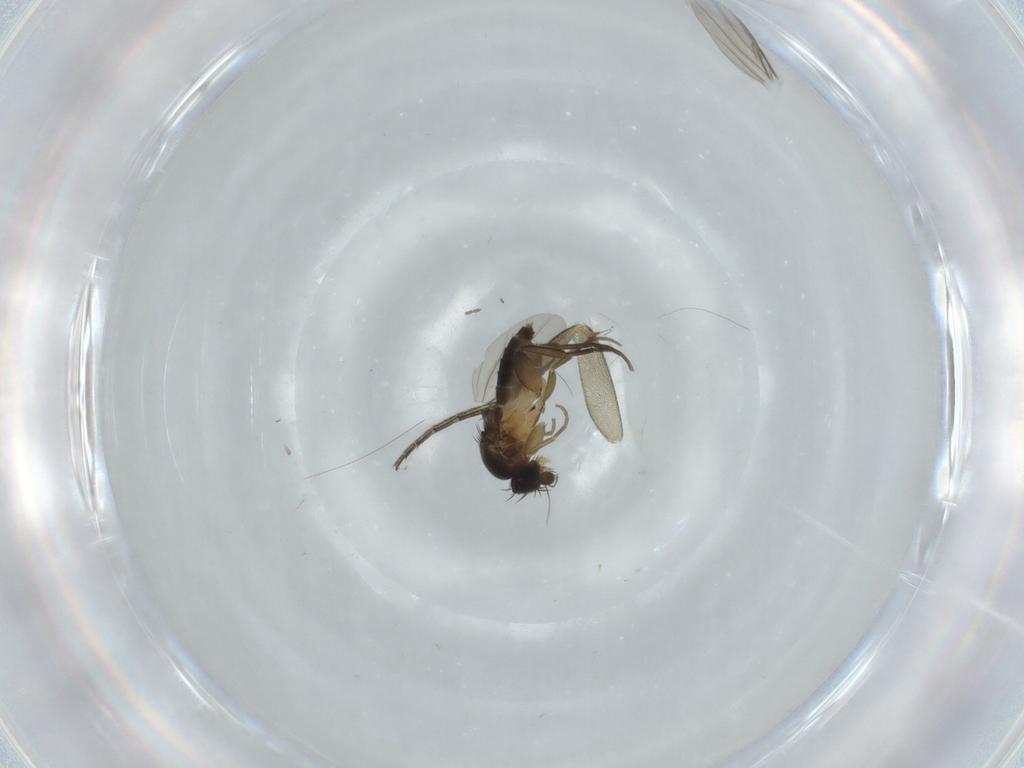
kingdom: Animalia
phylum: Arthropoda
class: Insecta
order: Diptera
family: Phoridae
